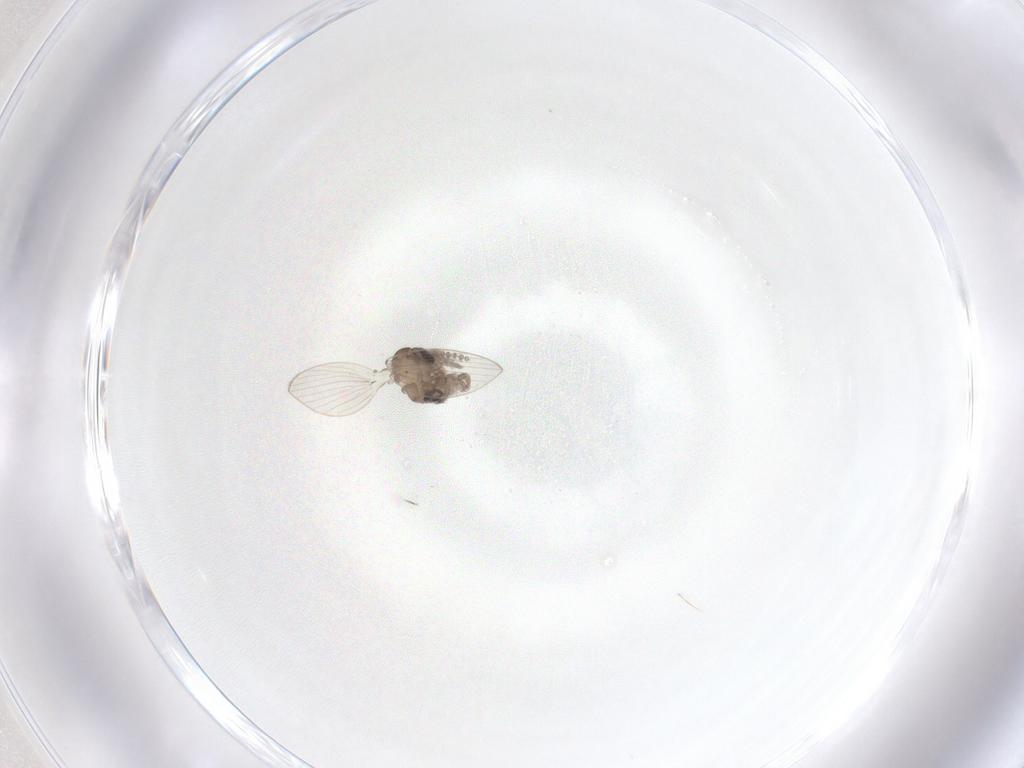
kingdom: Animalia
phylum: Arthropoda
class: Insecta
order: Diptera
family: Psychodidae
